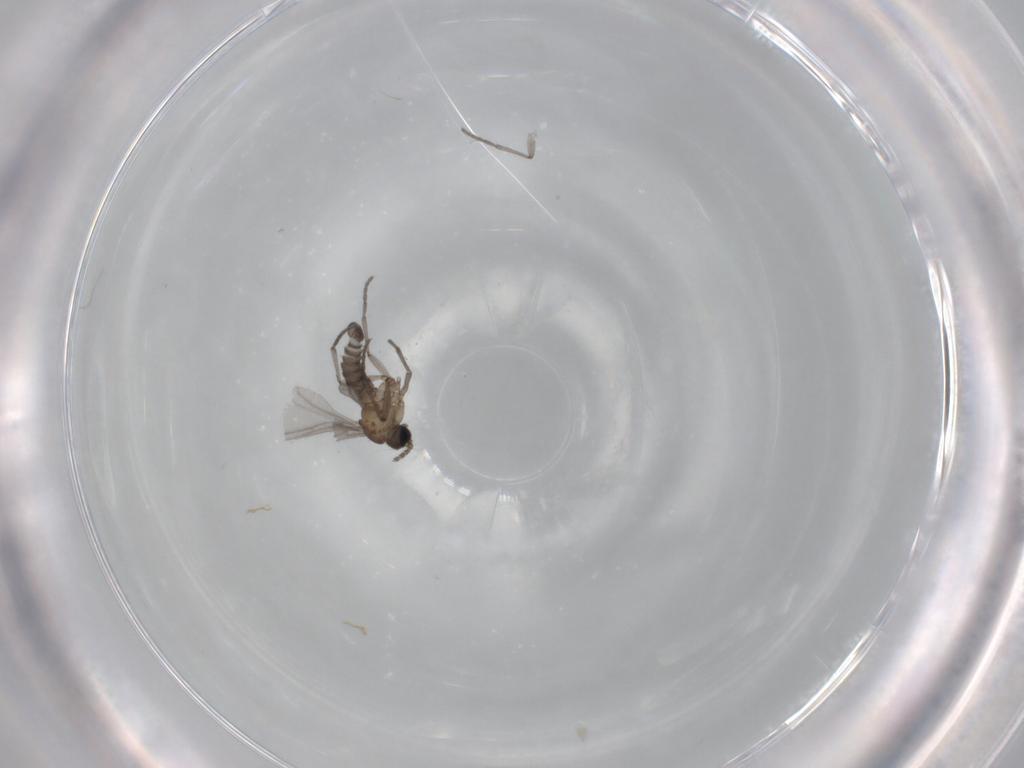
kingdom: Animalia
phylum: Arthropoda
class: Insecta
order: Diptera
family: Sciaridae
